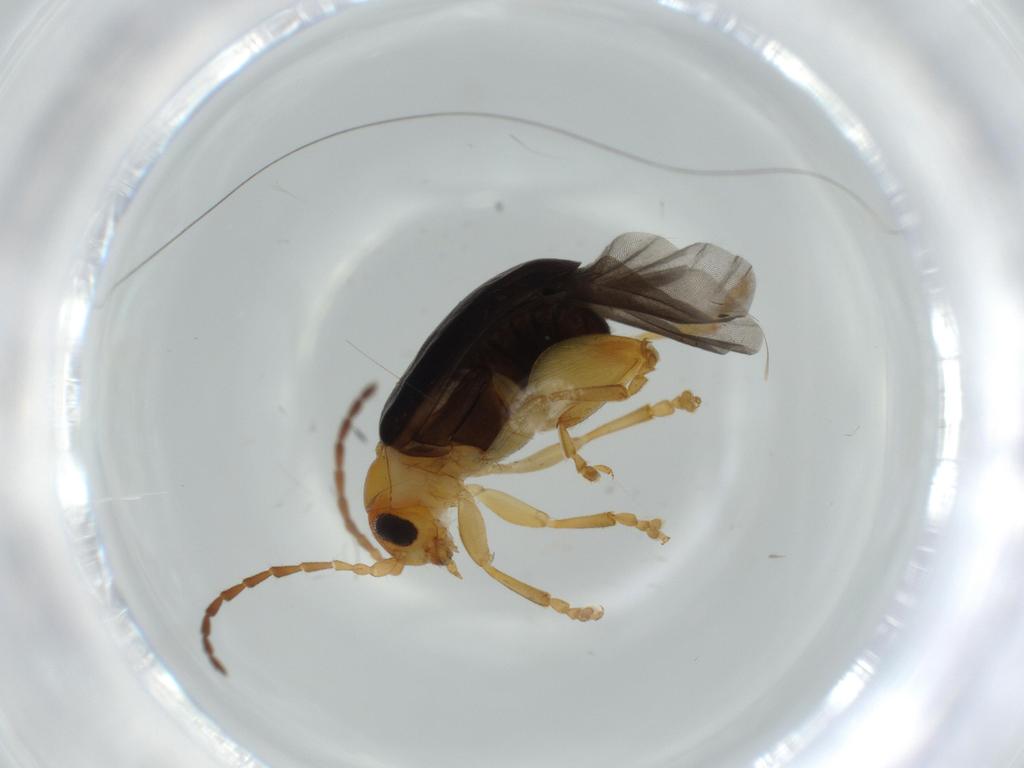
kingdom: Animalia
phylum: Arthropoda
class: Insecta
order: Coleoptera
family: Chrysomelidae
